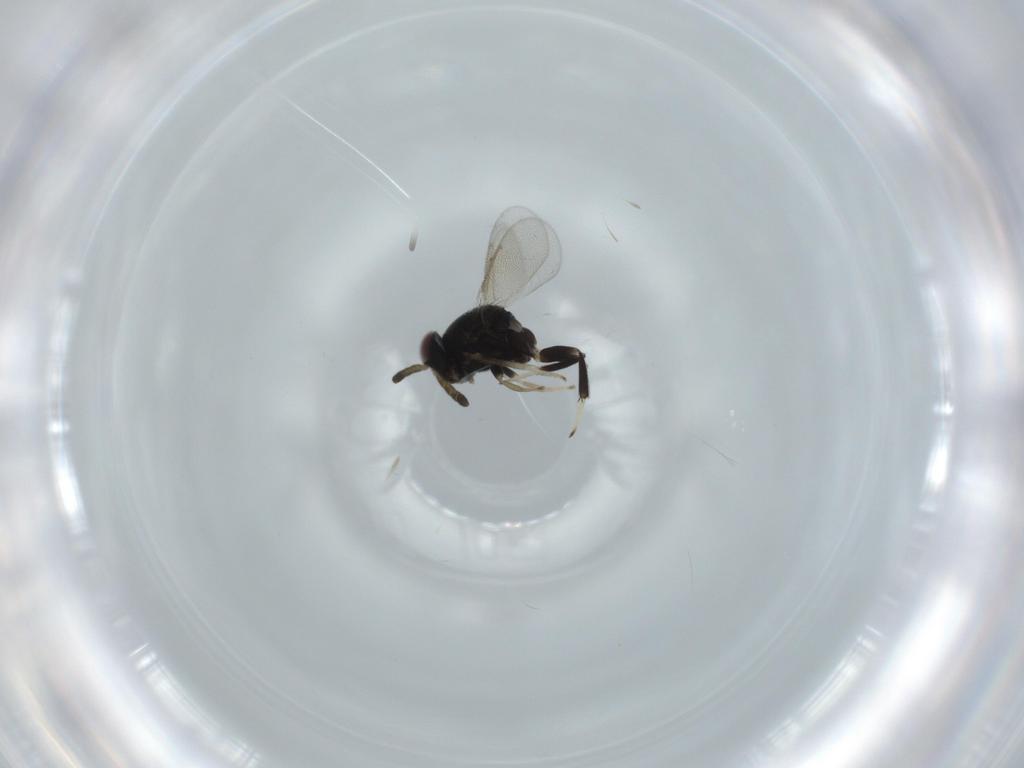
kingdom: Animalia
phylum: Arthropoda
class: Insecta
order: Hymenoptera
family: Aphelinidae
